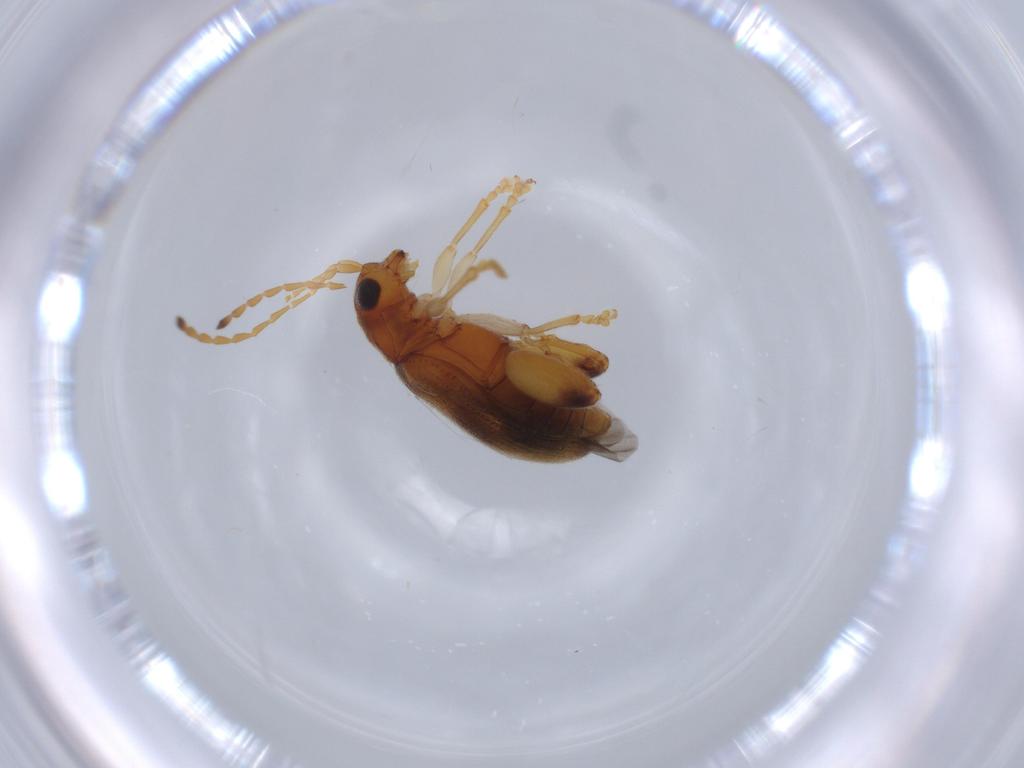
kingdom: Animalia
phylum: Arthropoda
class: Insecta
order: Coleoptera
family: Chrysomelidae
